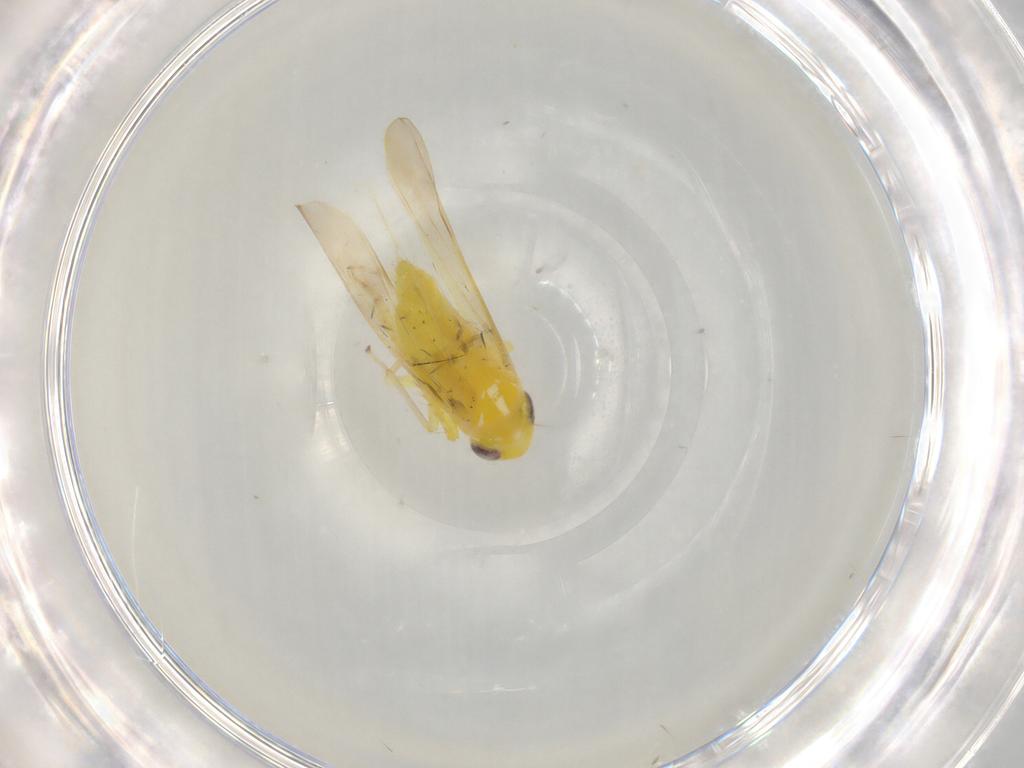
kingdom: Animalia
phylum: Arthropoda
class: Insecta
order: Hemiptera
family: Cicadellidae
